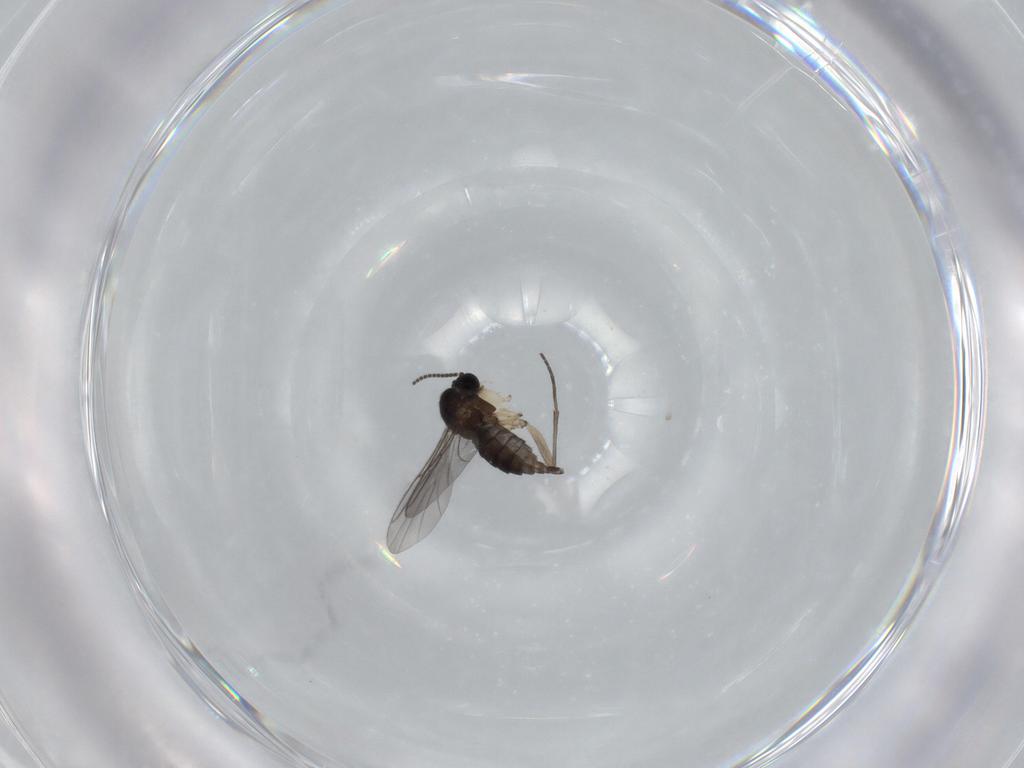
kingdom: Animalia
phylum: Arthropoda
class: Insecta
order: Diptera
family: Sciaridae
